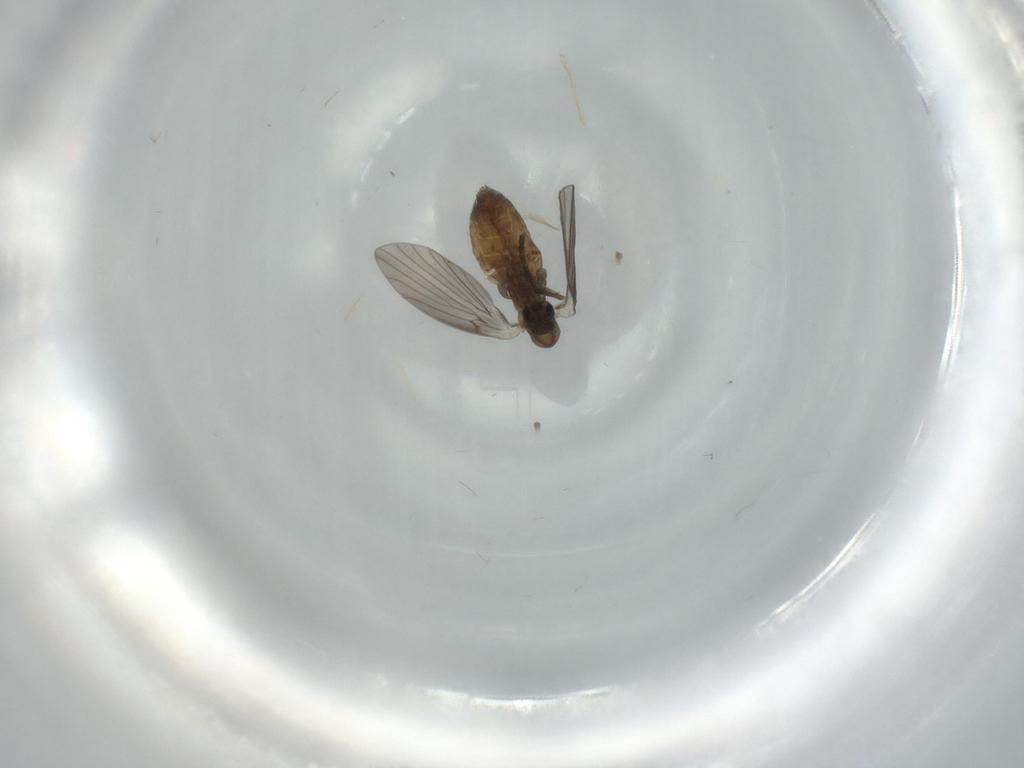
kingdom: Animalia
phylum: Arthropoda
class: Insecta
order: Diptera
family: Psychodidae
